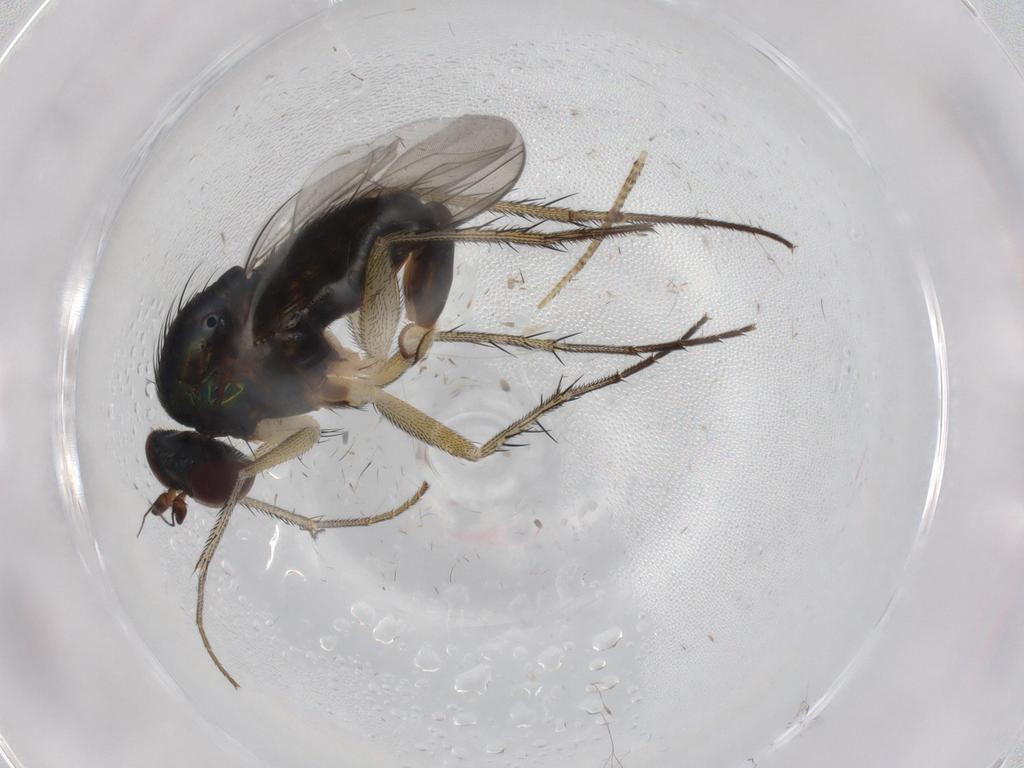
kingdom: Animalia
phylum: Arthropoda
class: Insecta
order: Diptera
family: Dolichopodidae
